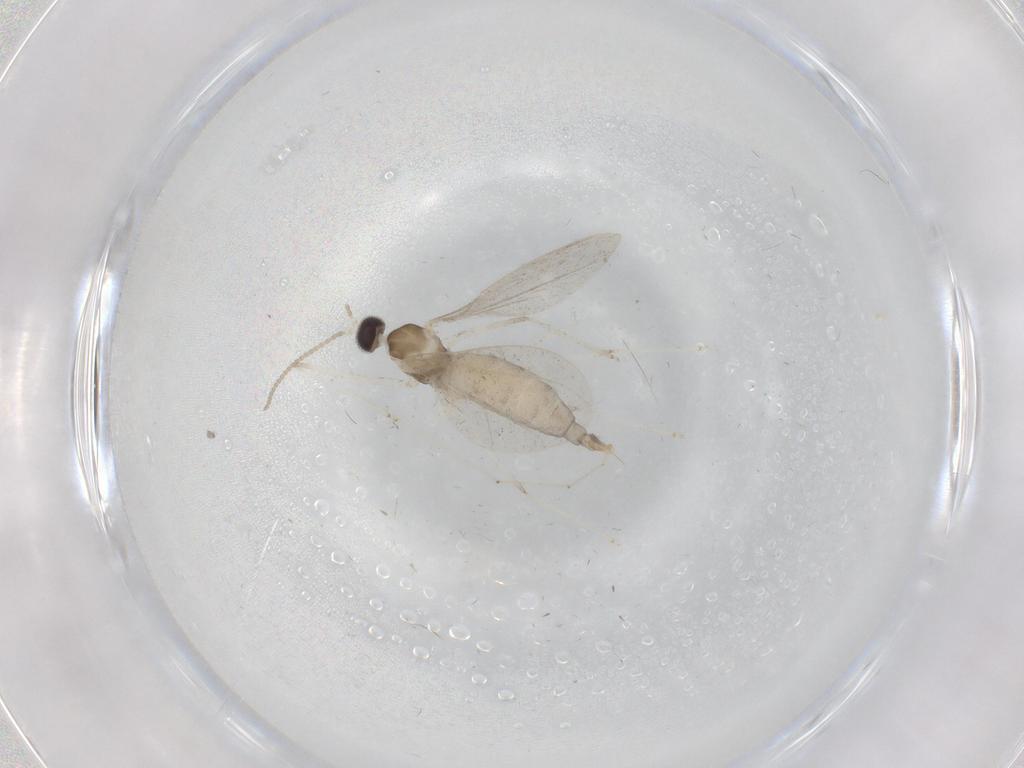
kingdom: Animalia
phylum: Arthropoda
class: Insecta
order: Diptera
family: Cecidomyiidae
